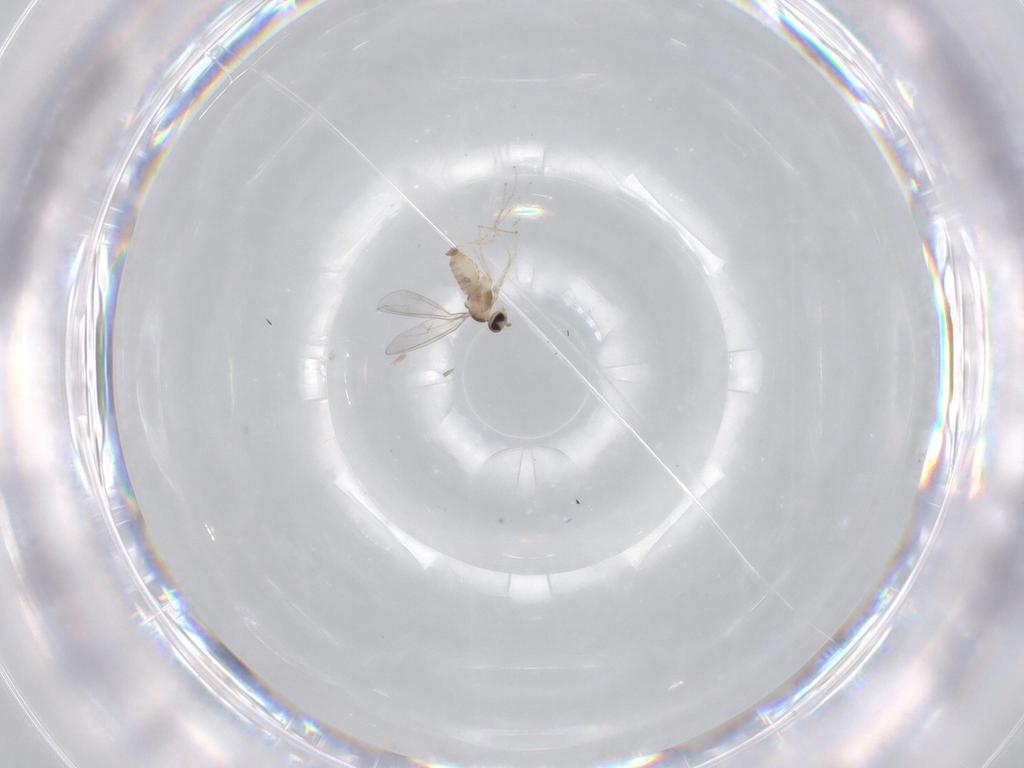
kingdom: Animalia
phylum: Arthropoda
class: Insecta
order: Diptera
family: Cecidomyiidae
